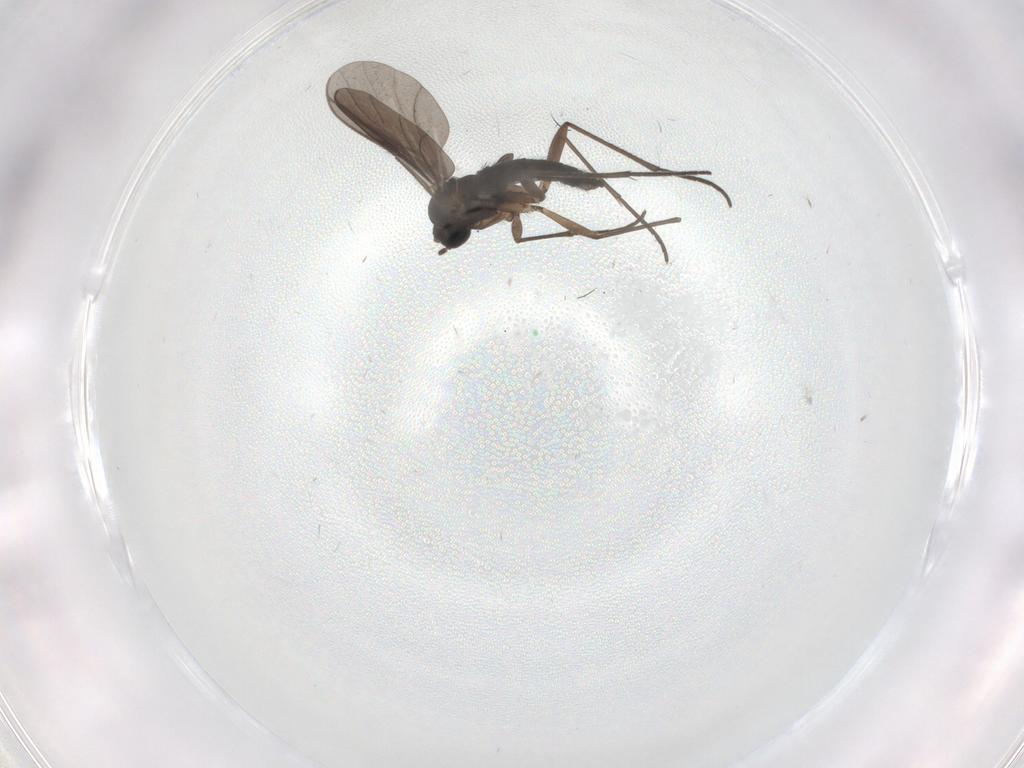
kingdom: Animalia
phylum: Arthropoda
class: Insecta
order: Diptera
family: Sciaridae
